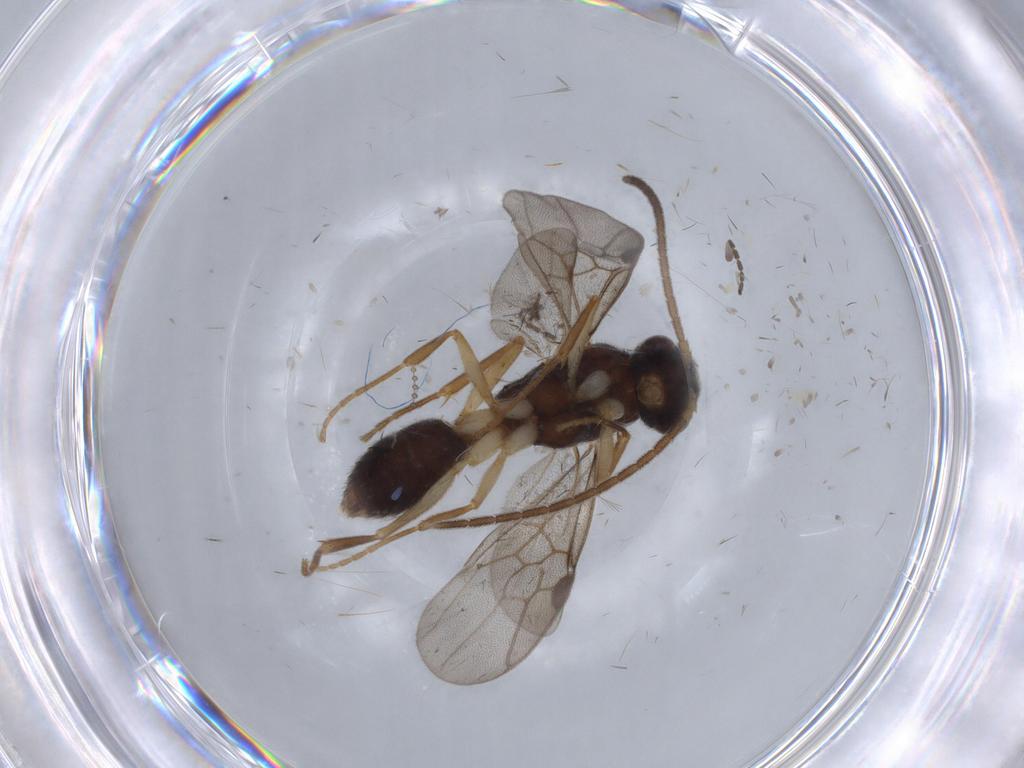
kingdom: Animalia
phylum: Arthropoda
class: Insecta
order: Hymenoptera
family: Formicidae
